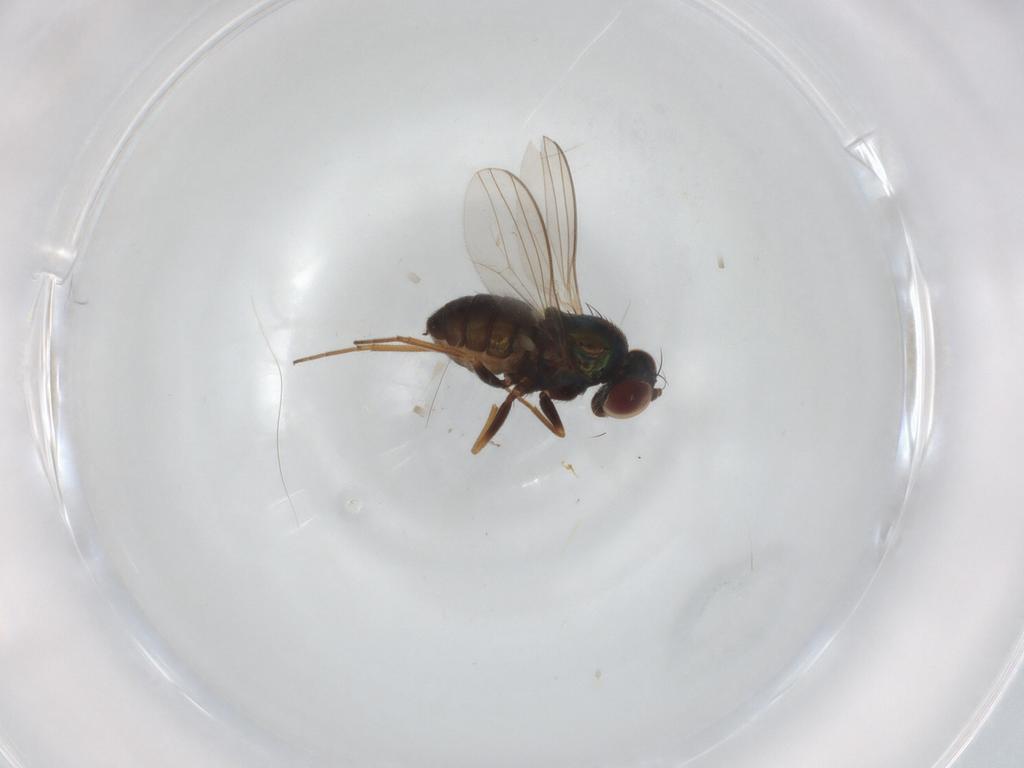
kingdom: Animalia
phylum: Arthropoda
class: Insecta
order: Diptera
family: Dolichopodidae
